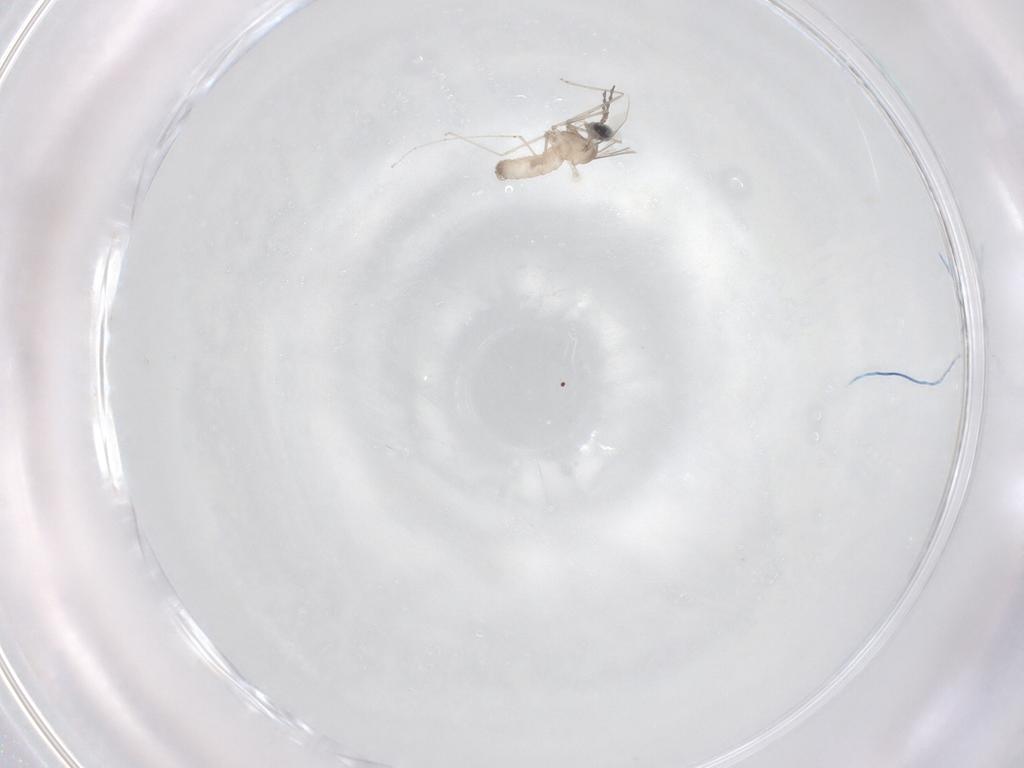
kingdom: Animalia
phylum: Arthropoda
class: Insecta
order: Diptera
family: Cecidomyiidae
